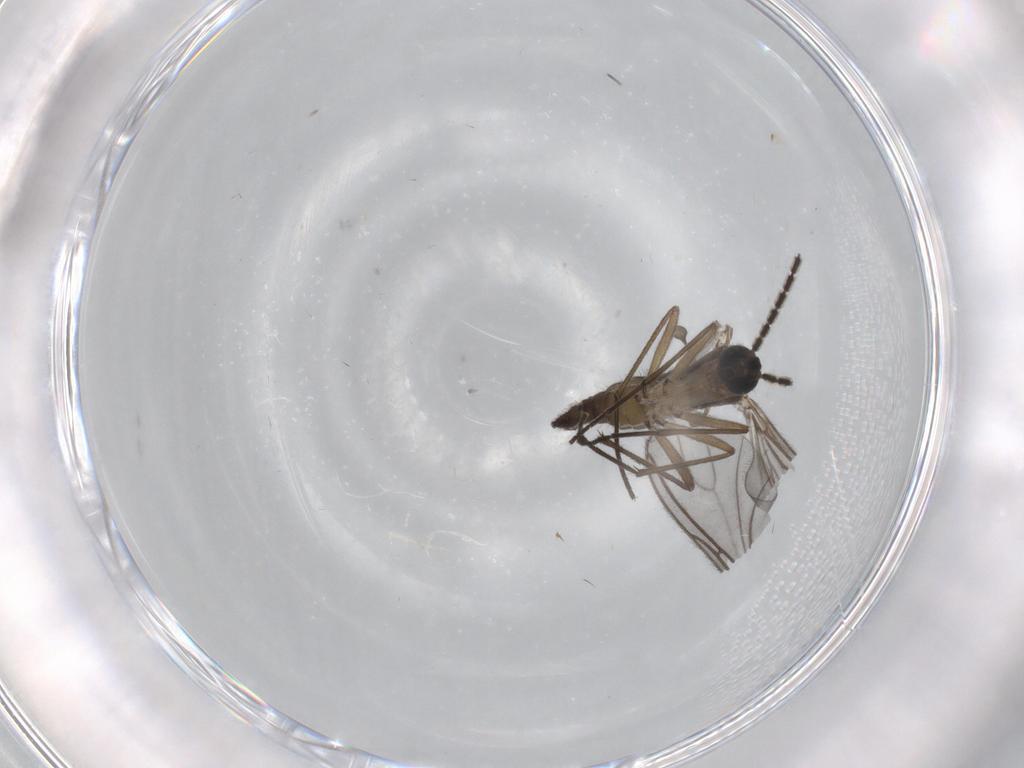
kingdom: Animalia
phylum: Arthropoda
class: Insecta
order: Diptera
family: Sciaridae
